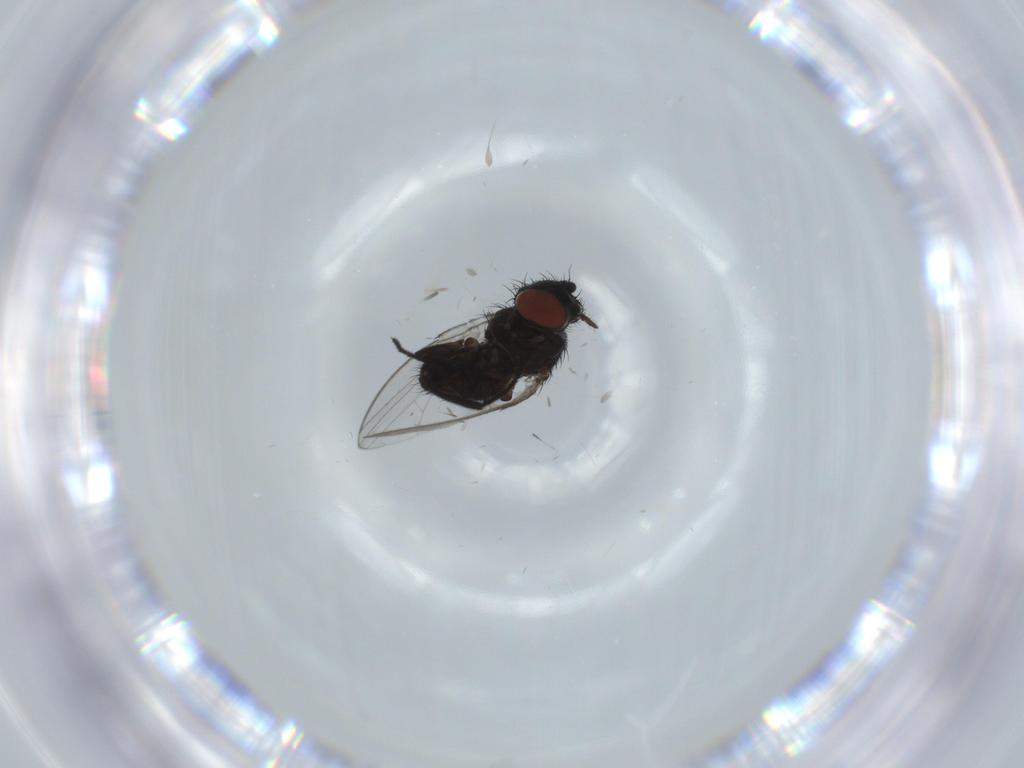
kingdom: Animalia
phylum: Arthropoda
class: Insecta
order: Diptera
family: Milichiidae
